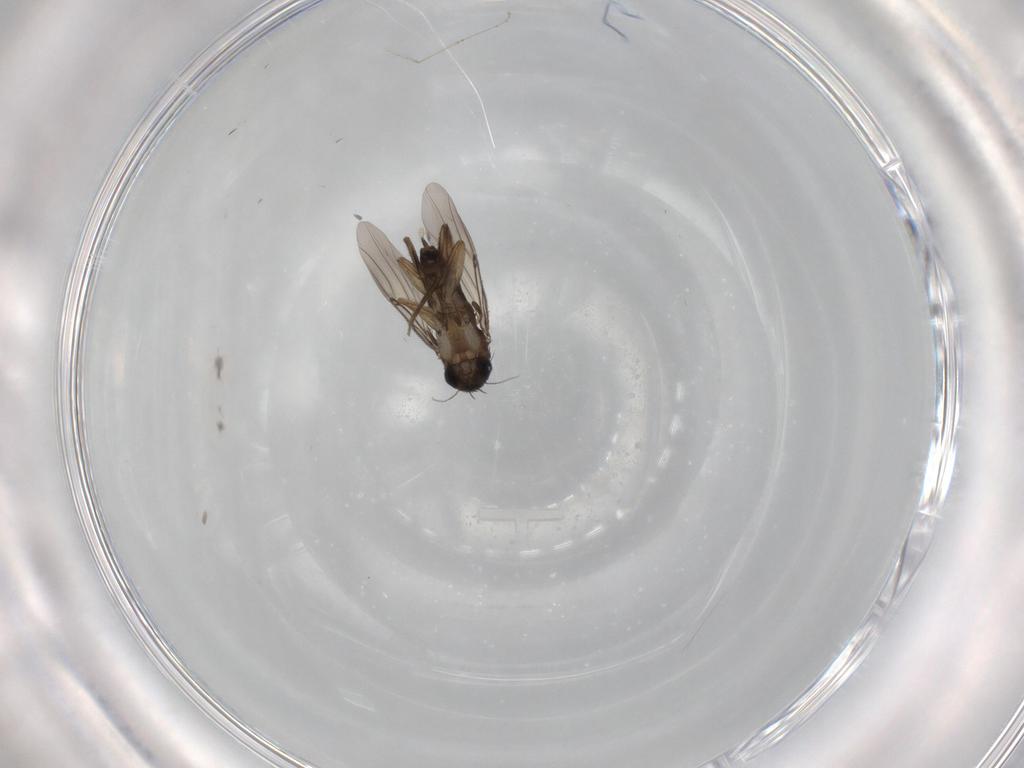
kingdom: Animalia
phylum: Arthropoda
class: Insecta
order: Diptera
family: Phoridae
